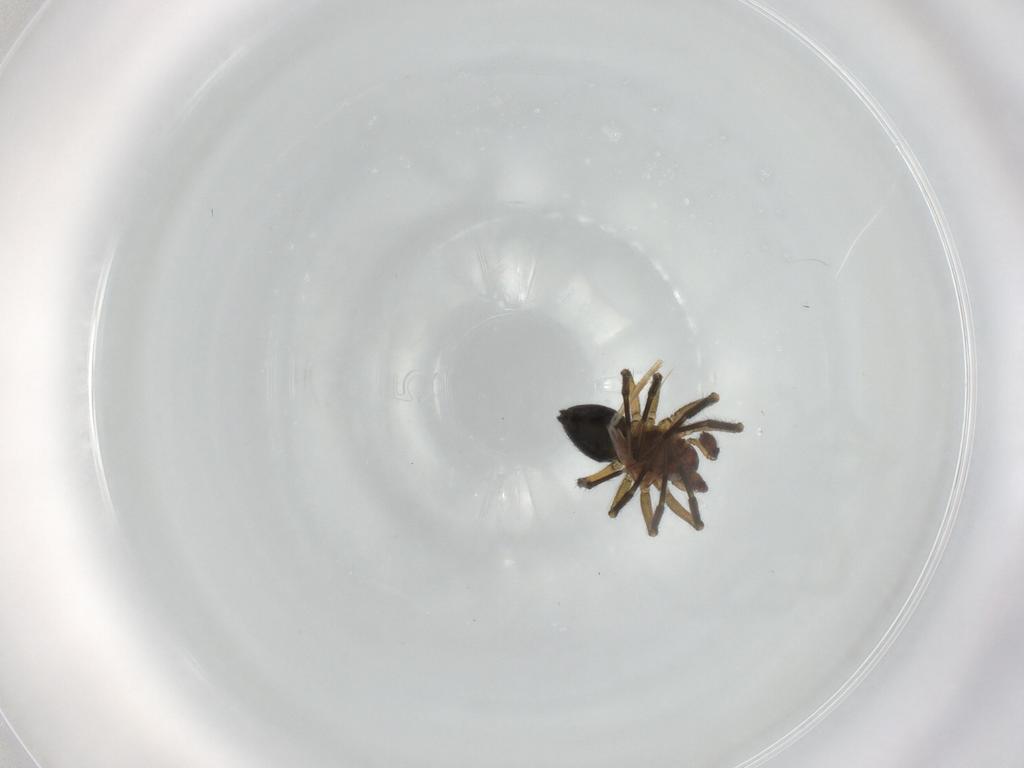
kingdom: Animalia
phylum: Arthropoda
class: Arachnida
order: Araneae
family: Linyphiidae
